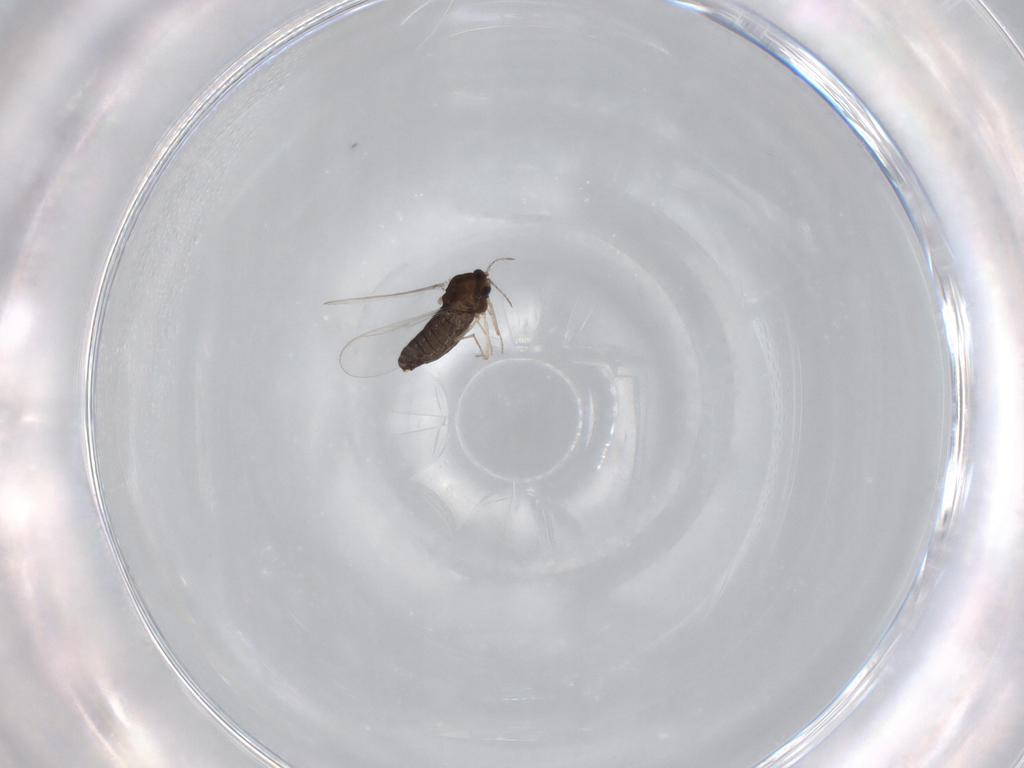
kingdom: Animalia
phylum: Arthropoda
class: Insecta
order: Diptera
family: Chironomidae
